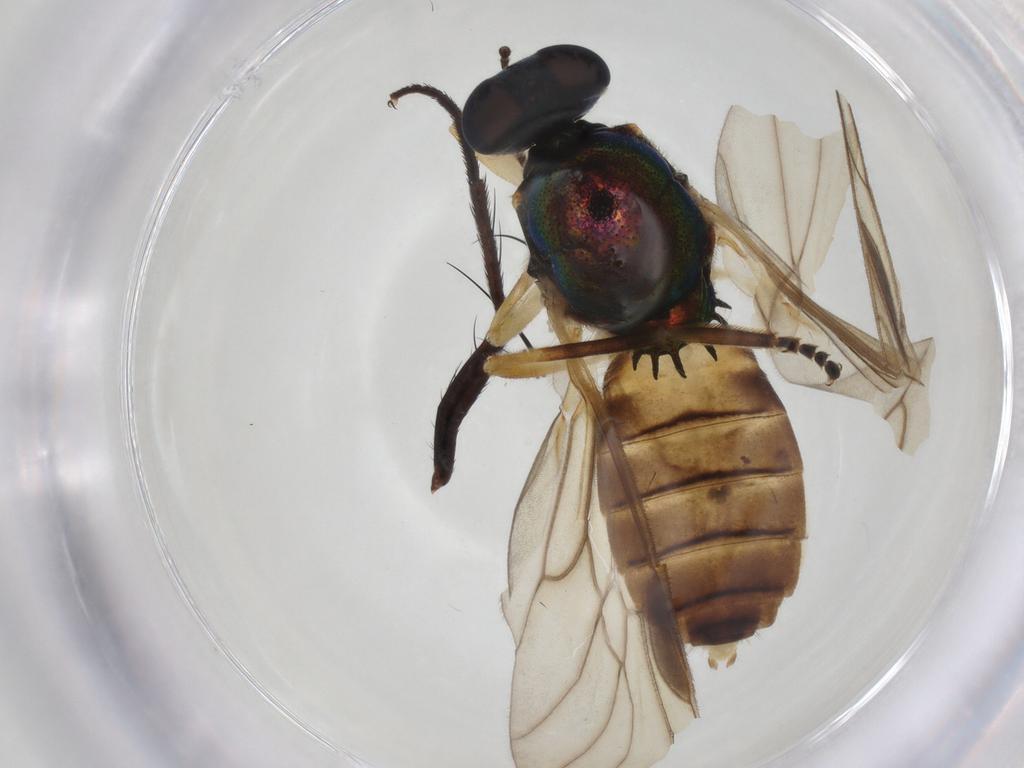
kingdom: Animalia
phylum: Arthropoda
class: Insecta
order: Diptera
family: Stratiomyidae
